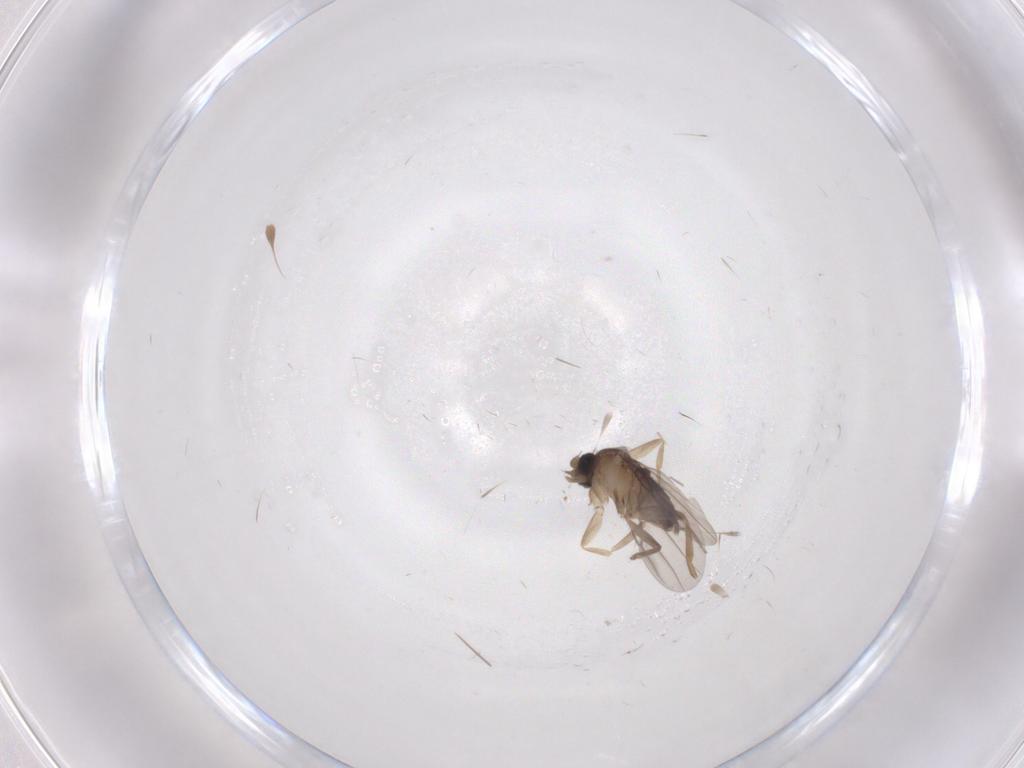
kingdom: Animalia
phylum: Arthropoda
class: Insecta
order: Diptera
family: Phoridae
